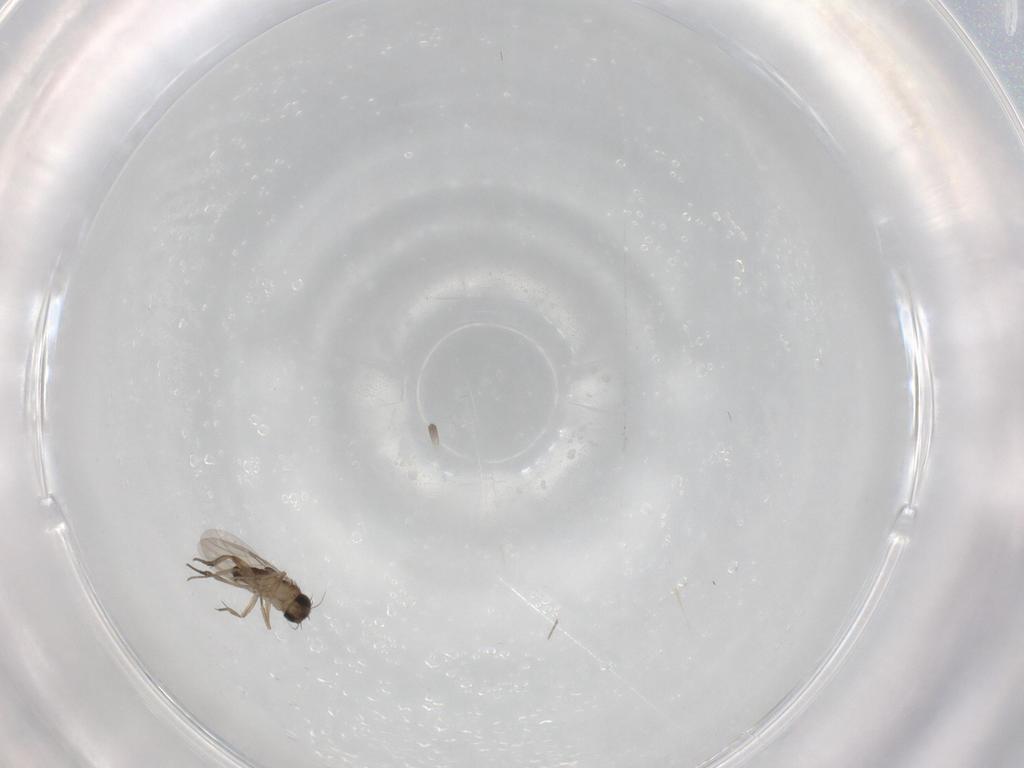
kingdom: Animalia
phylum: Arthropoda
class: Insecta
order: Diptera
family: Phoridae
